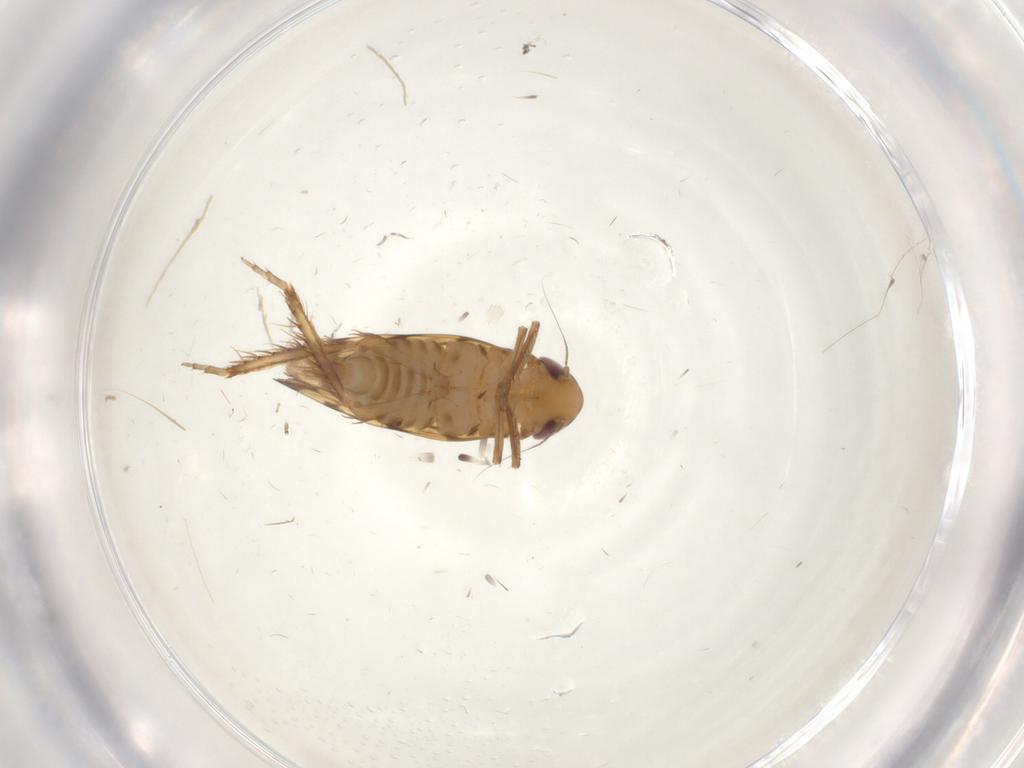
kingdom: Animalia
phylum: Arthropoda
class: Insecta
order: Hemiptera
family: Cicadellidae
